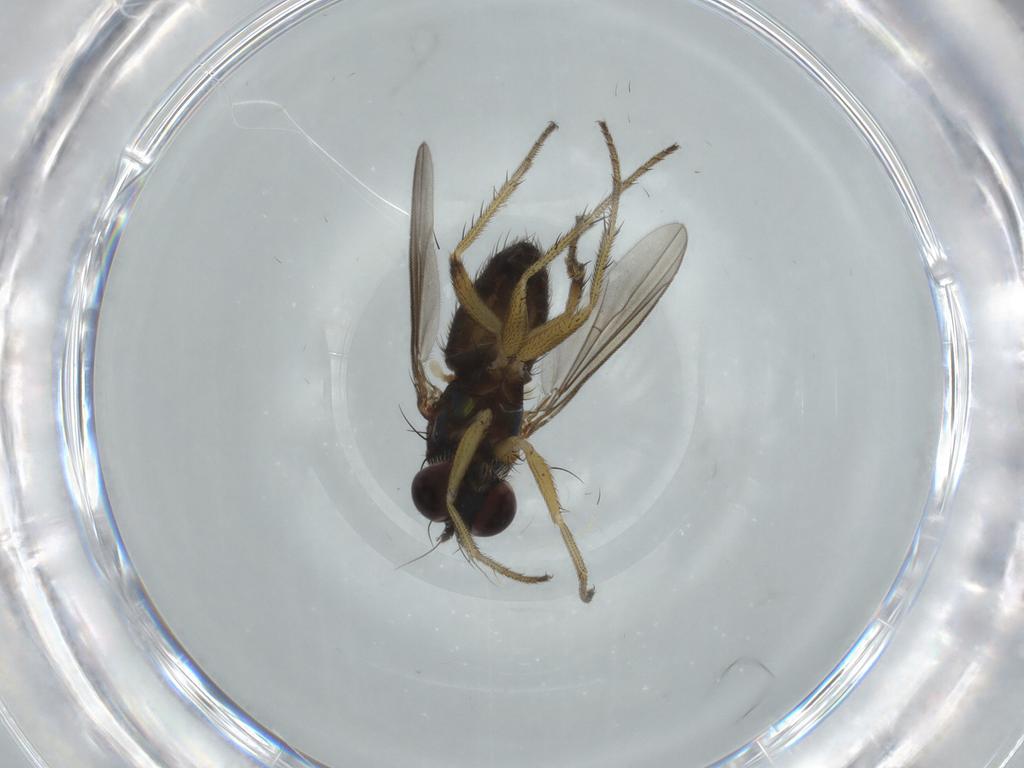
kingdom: Animalia
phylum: Arthropoda
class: Insecta
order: Diptera
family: Dolichopodidae
